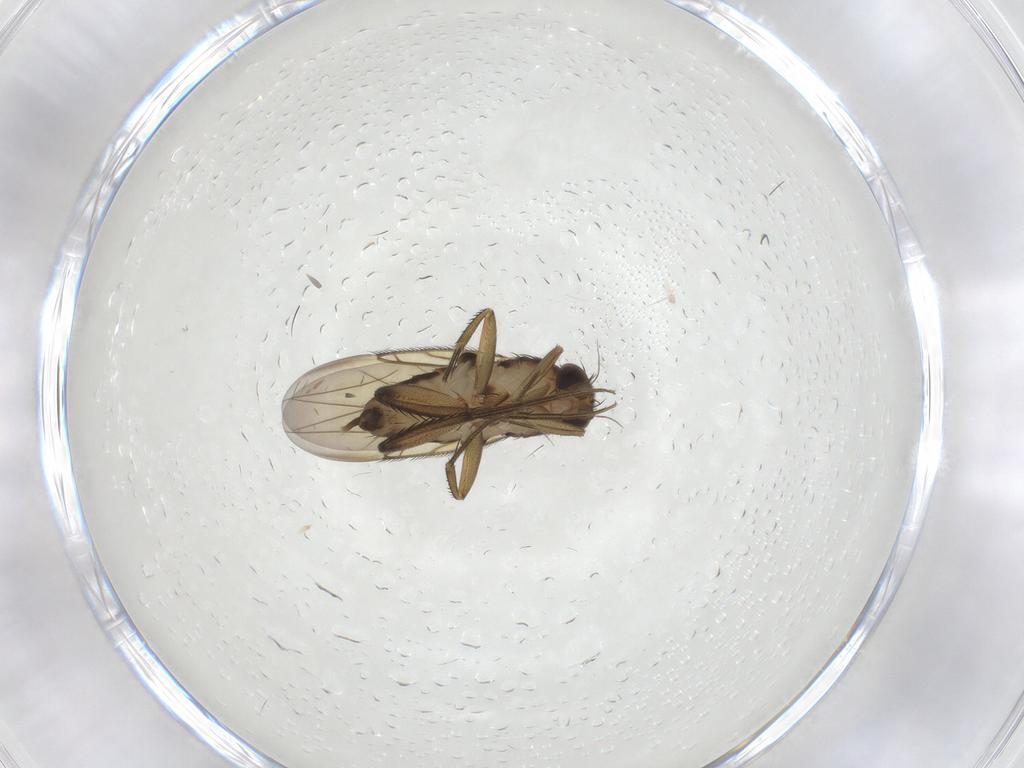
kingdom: Animalia
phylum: Arthropoda
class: Insecta
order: Diptera
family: Phoridae
